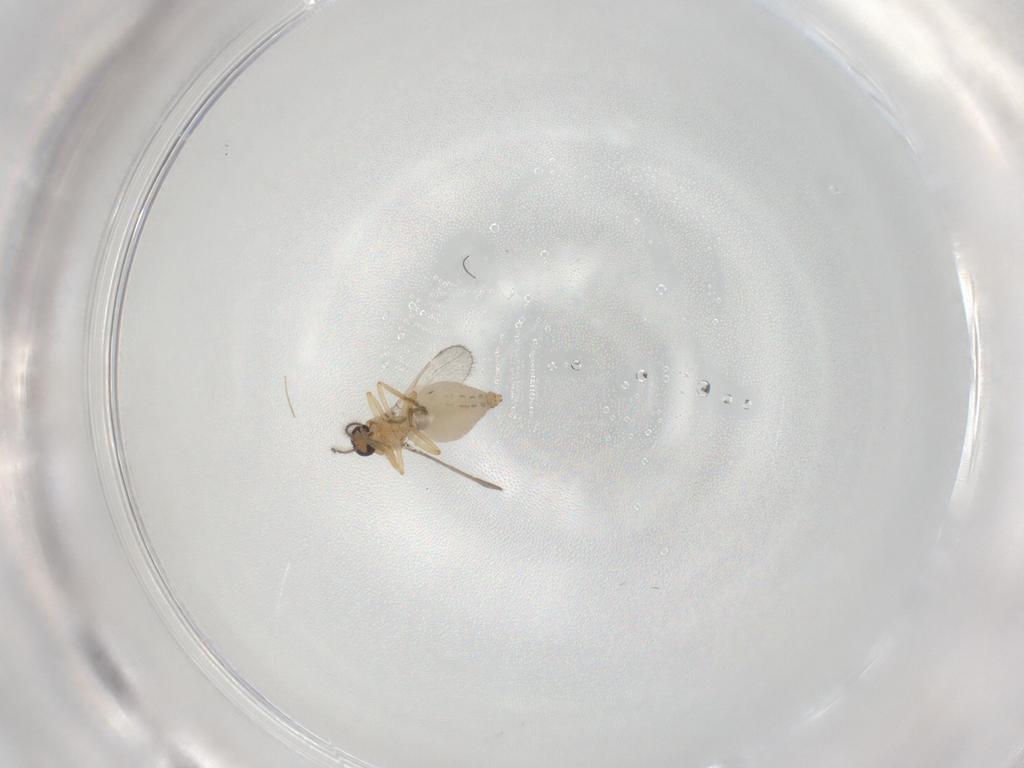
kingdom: Animalia
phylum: Arthropoda
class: Insecta
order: Diptera
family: Ceratopogonidae
